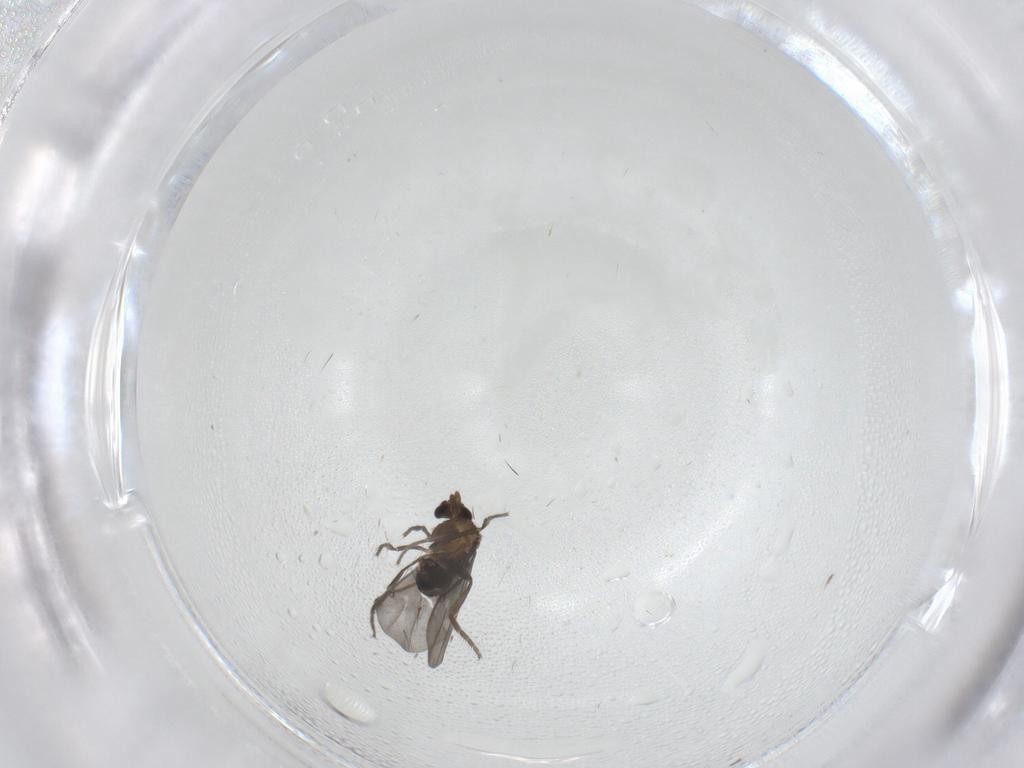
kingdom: Animalia
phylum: Arthropoda
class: Insecta
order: Diptera
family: Phoridae
